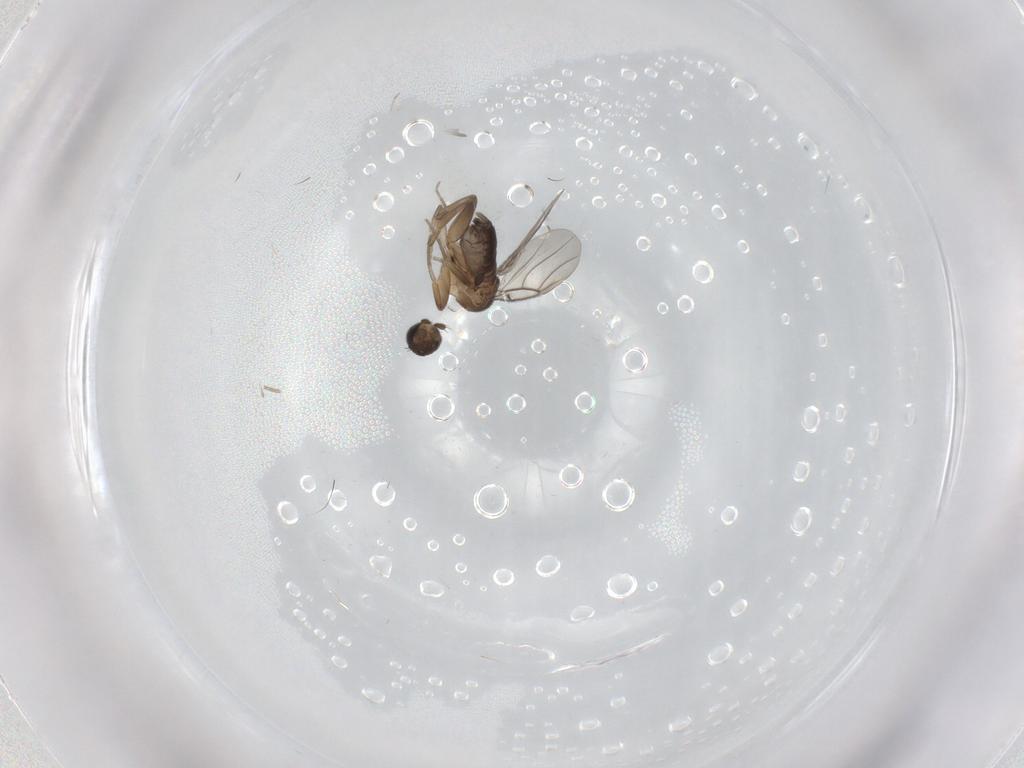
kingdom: Animalia
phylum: Arthropoda
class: Insecta
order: Diptera
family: Phoridae
